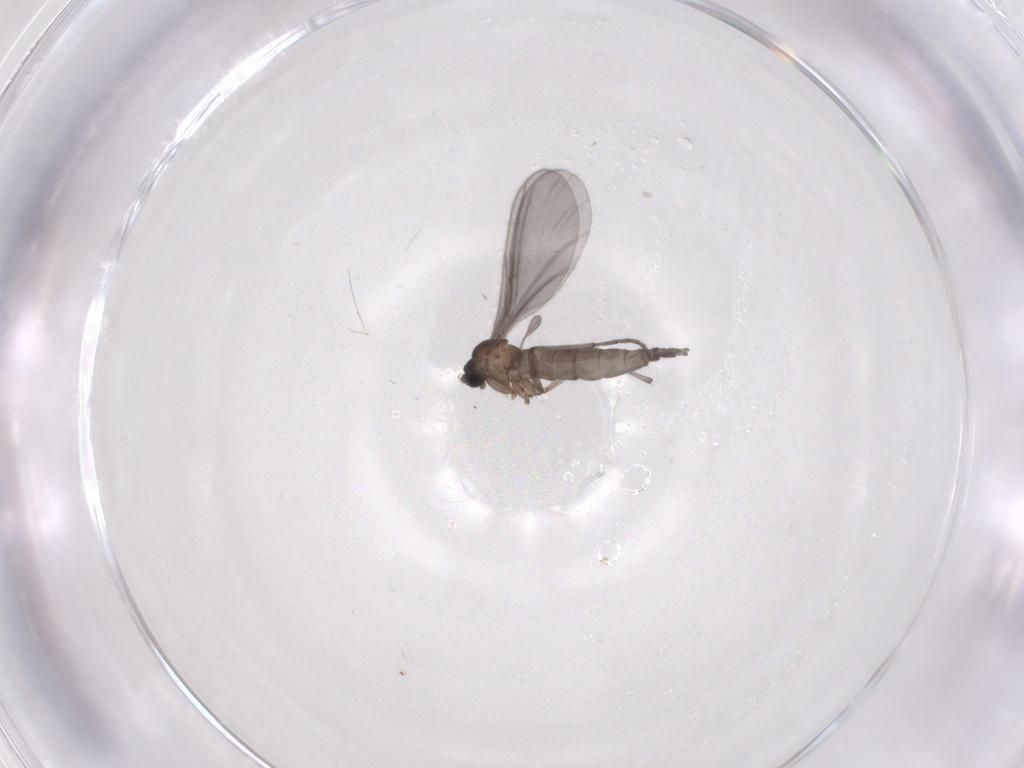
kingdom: Animalia
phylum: Arthropoda
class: Insecta
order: Diptera
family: Sciaridae
